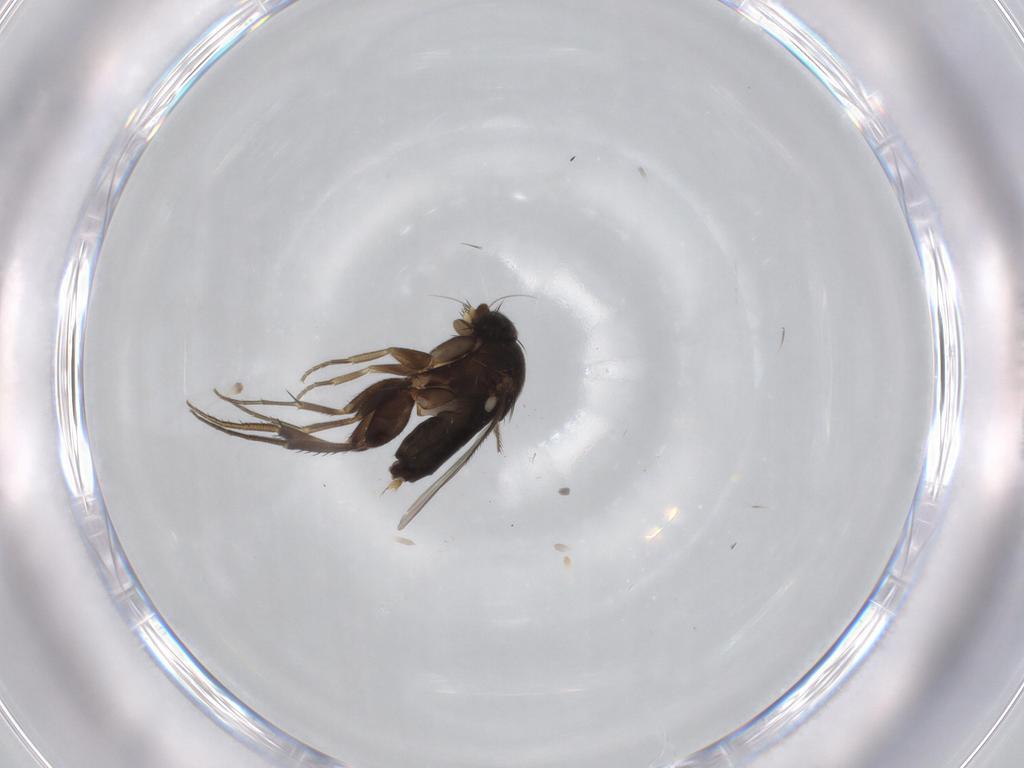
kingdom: Animalia
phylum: Arthropoda
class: Insecta
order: Diptera
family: Phoridae
